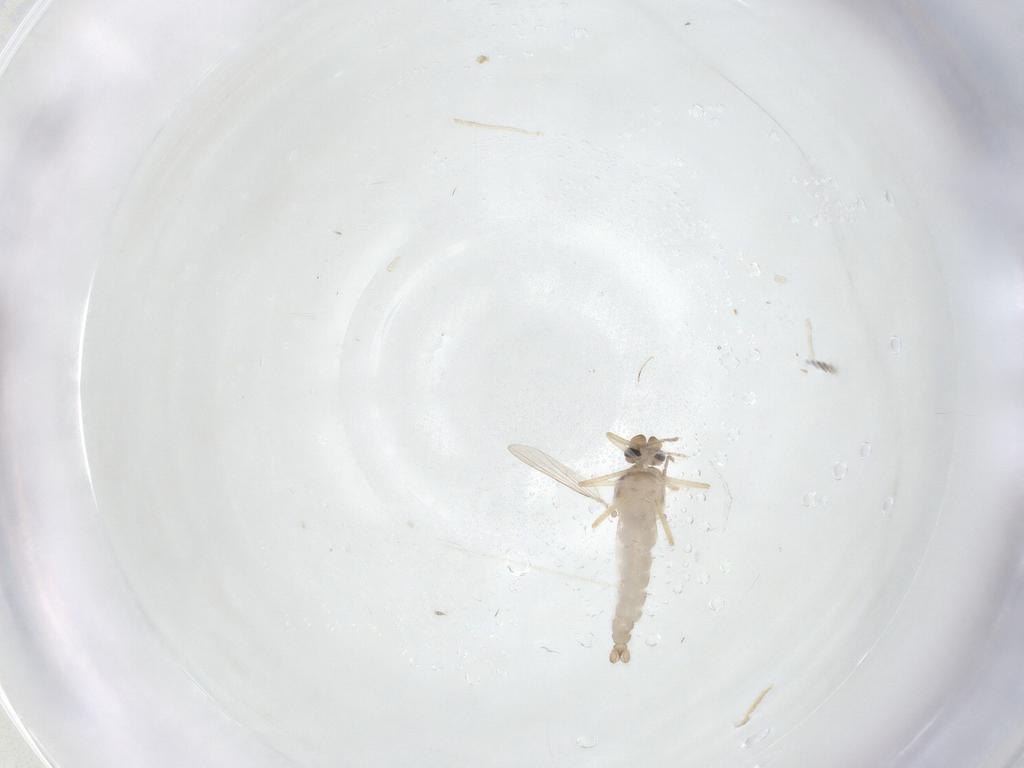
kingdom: Animalia
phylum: Arthropoda
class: Insecta
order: Diptera
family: Ceratopogonidae
